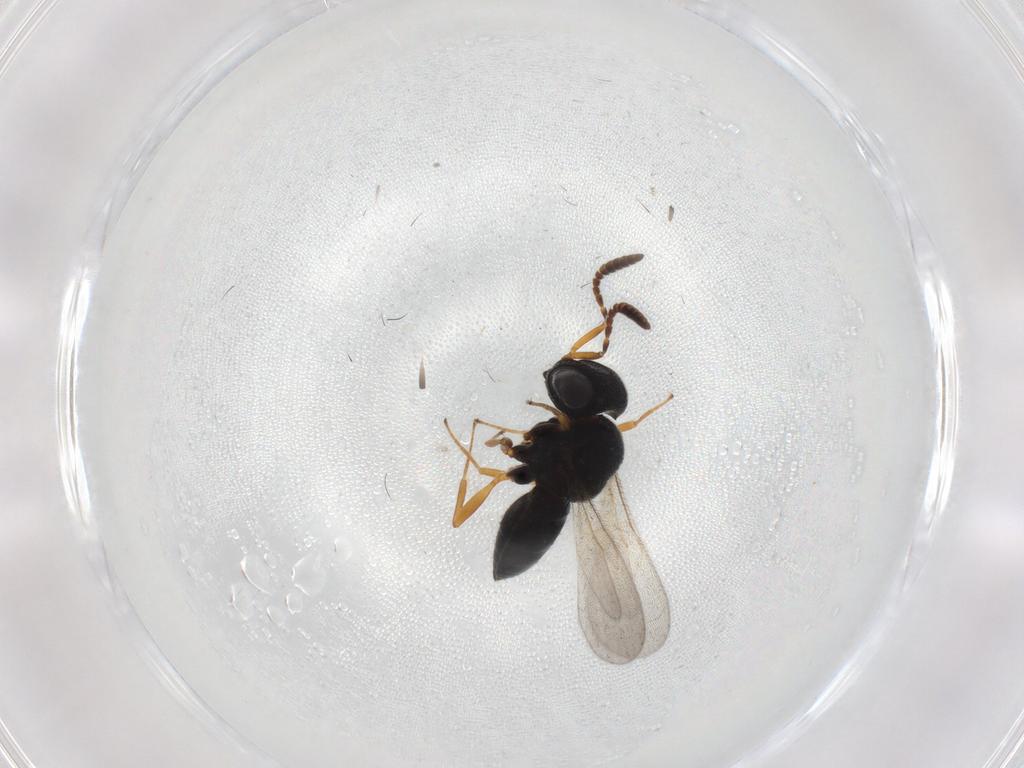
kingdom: Animalia
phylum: Arthropoda
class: Insecta
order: Hymenoptera
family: Scelionidae
